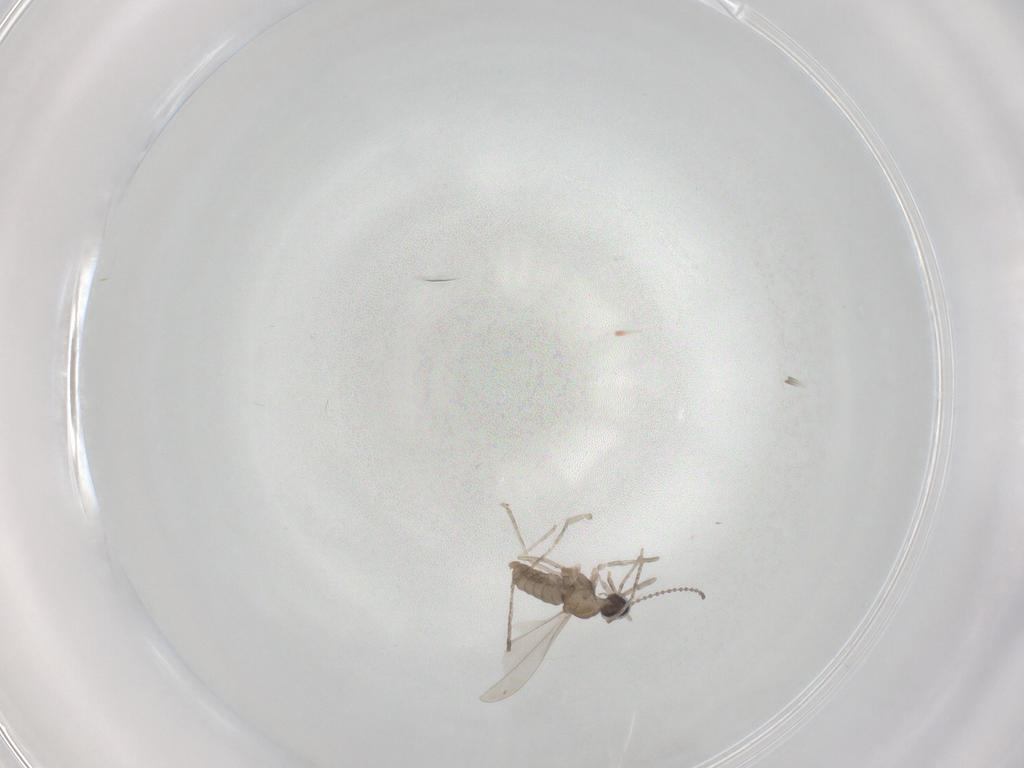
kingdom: Animalia
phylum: Arthropoda
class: Insecta
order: Diptera
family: Cecidomyiidae
